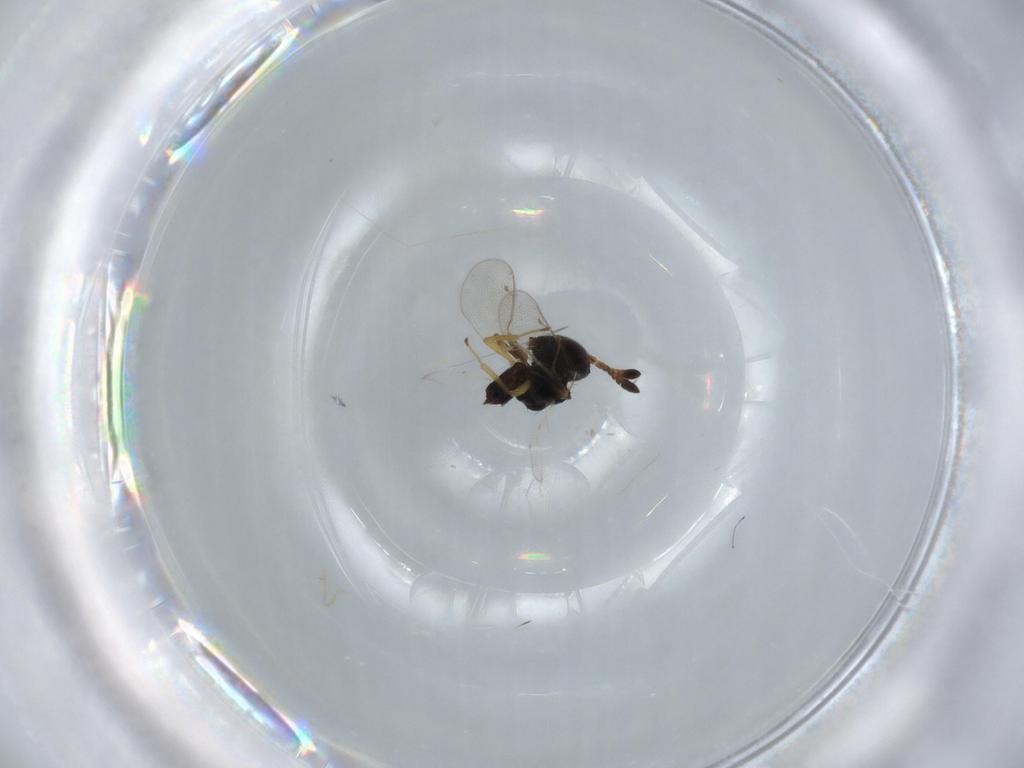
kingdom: Animalia
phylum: Arthropoda
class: Insecta
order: Hymenoptera
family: Pteromalidae
